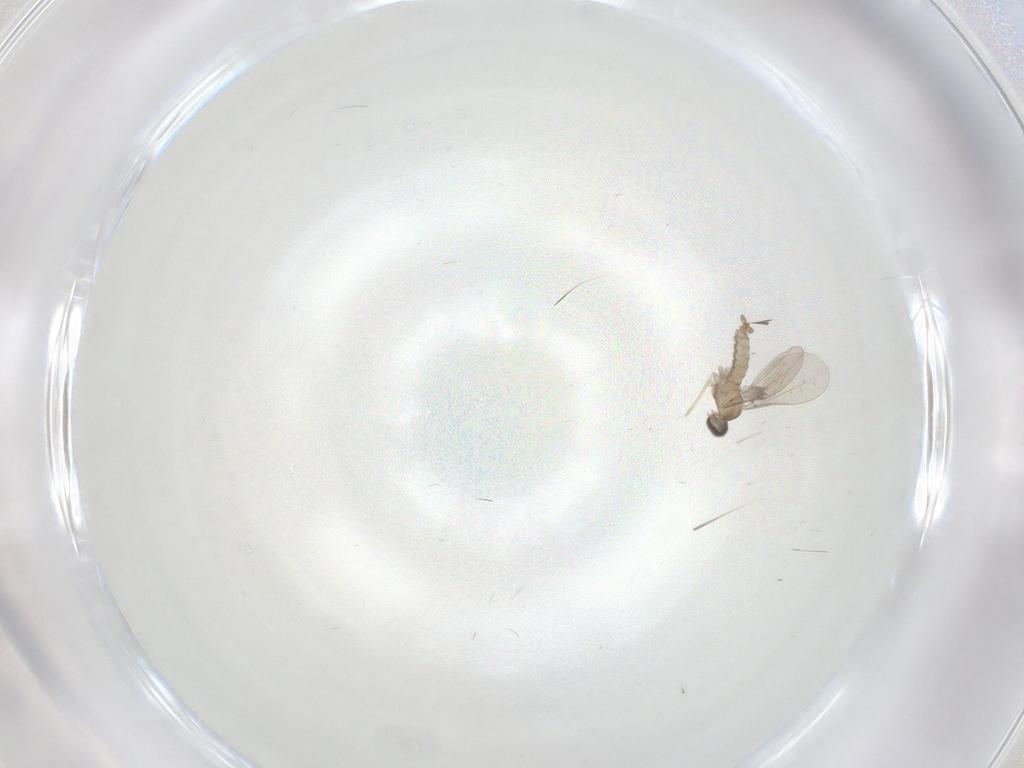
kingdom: Animalia
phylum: Arthropoda
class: Insecta
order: Diptera
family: Cecidomyiidae
